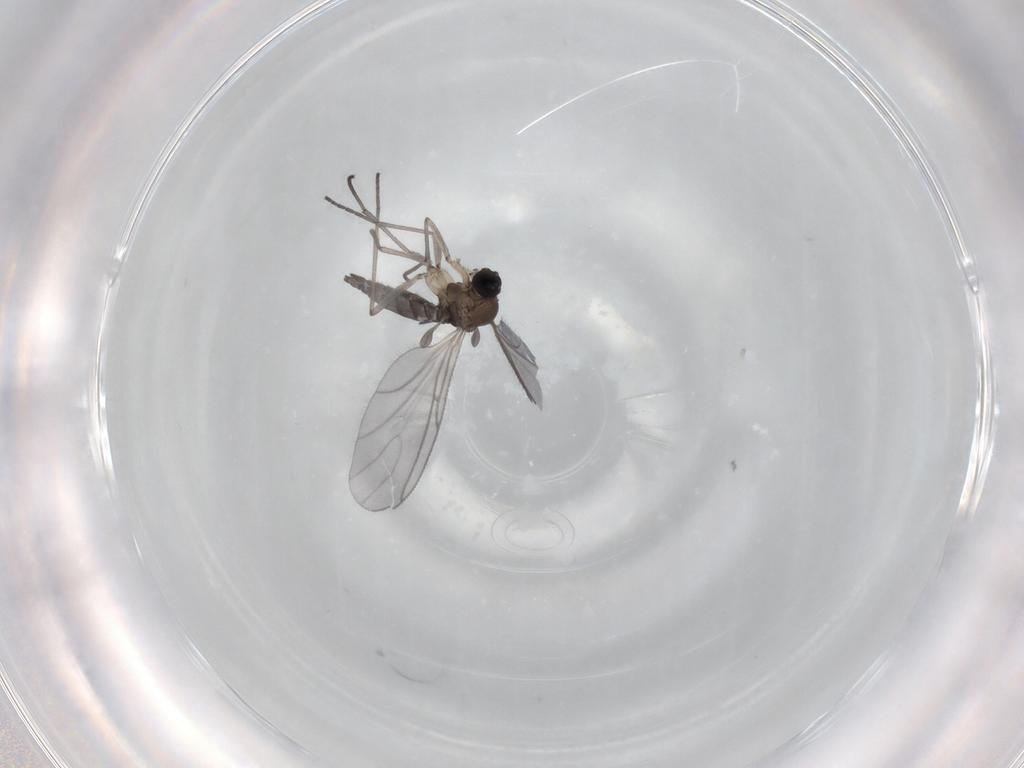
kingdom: Animalia
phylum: Arthropoda
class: Insecta
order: Diptera
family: Sciaridae
